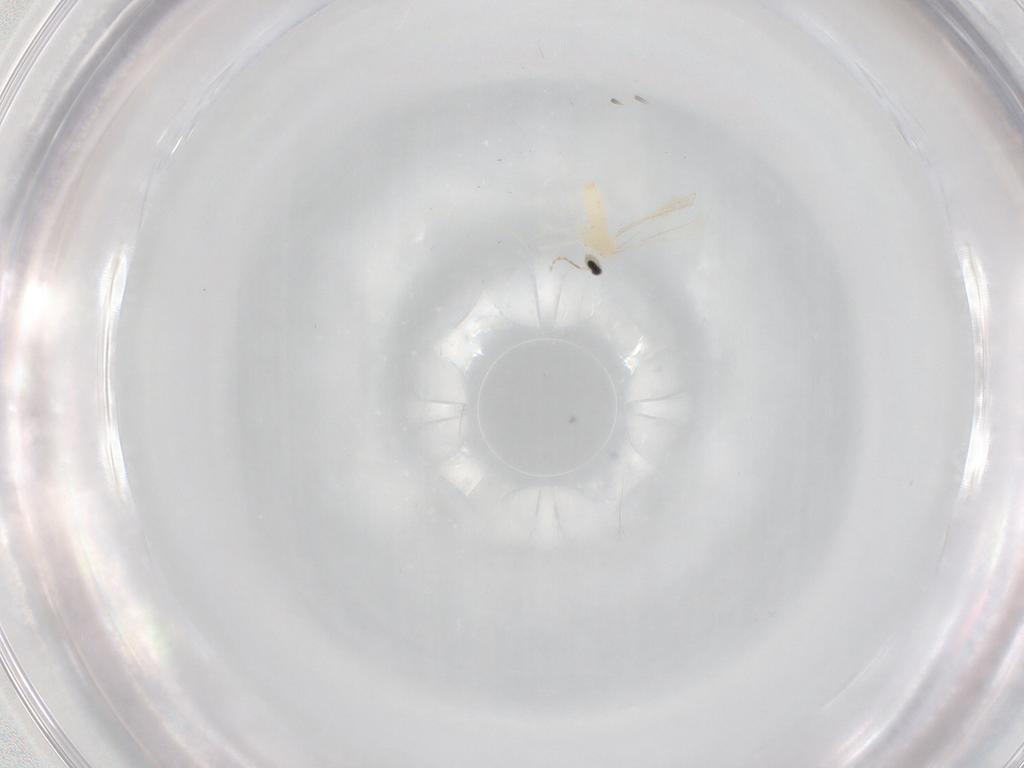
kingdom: Animalia
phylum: Arthropoda
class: Insecta
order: Diptera
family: Cecidomyiidae
